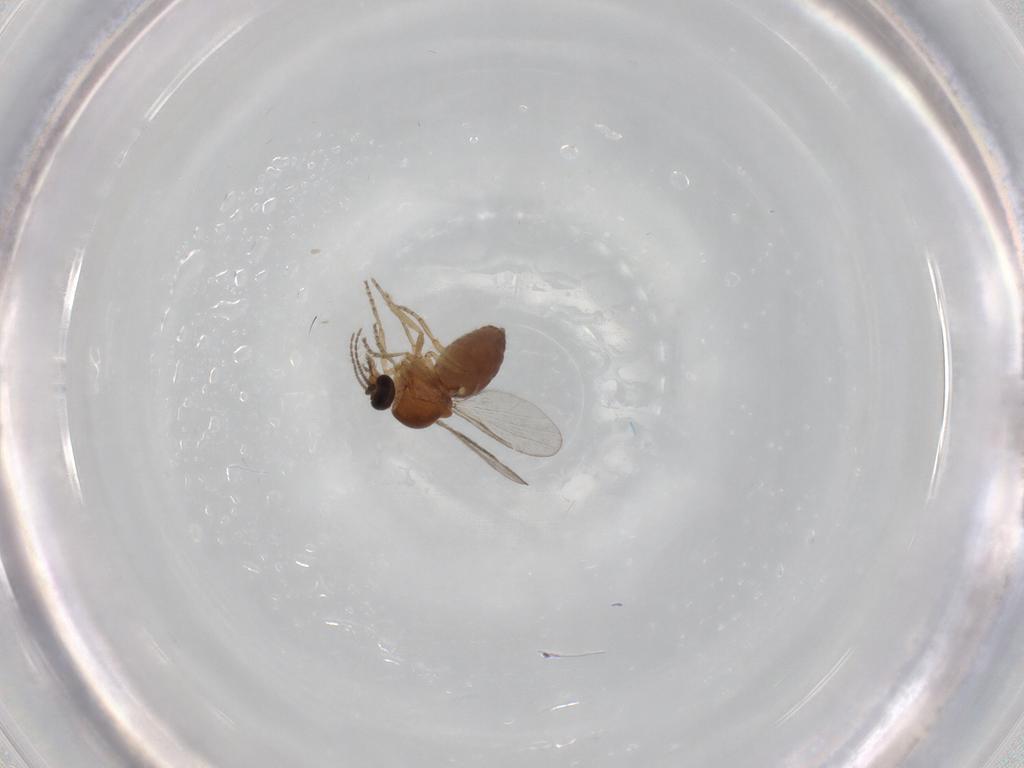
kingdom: Animalia
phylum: Arthropoda
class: Insecta
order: Diptera
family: Ceratopogonidae
